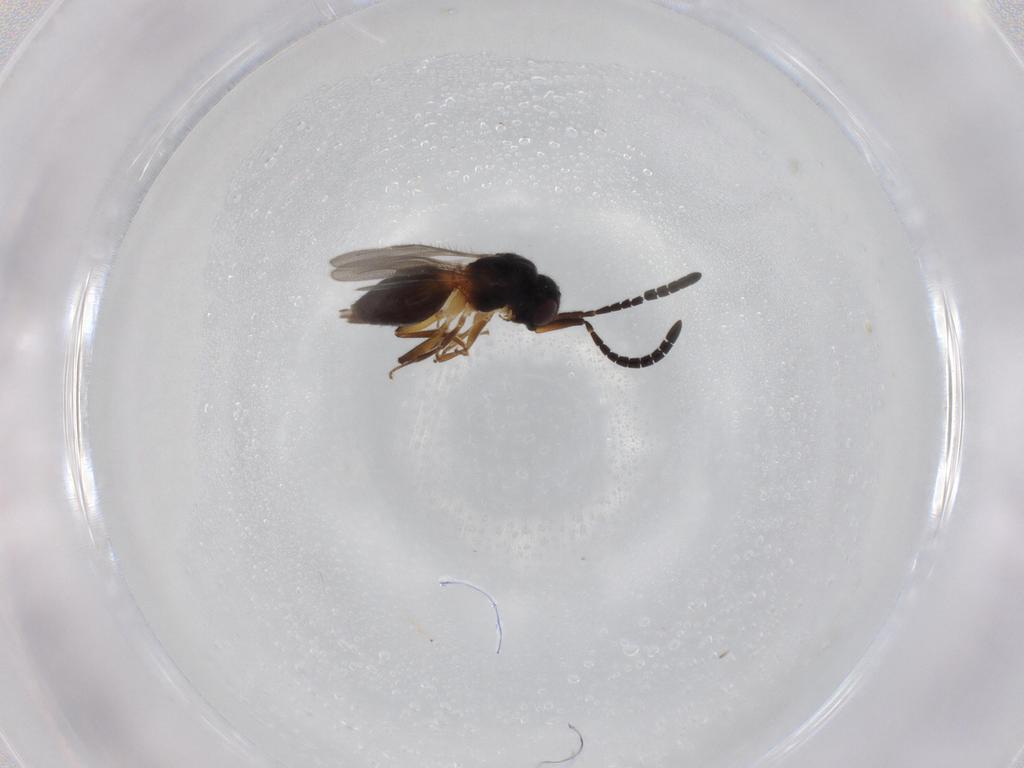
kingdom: Animalia
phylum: Arthropoda
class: Insecta
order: Hymenoptera
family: Megaspilidae
